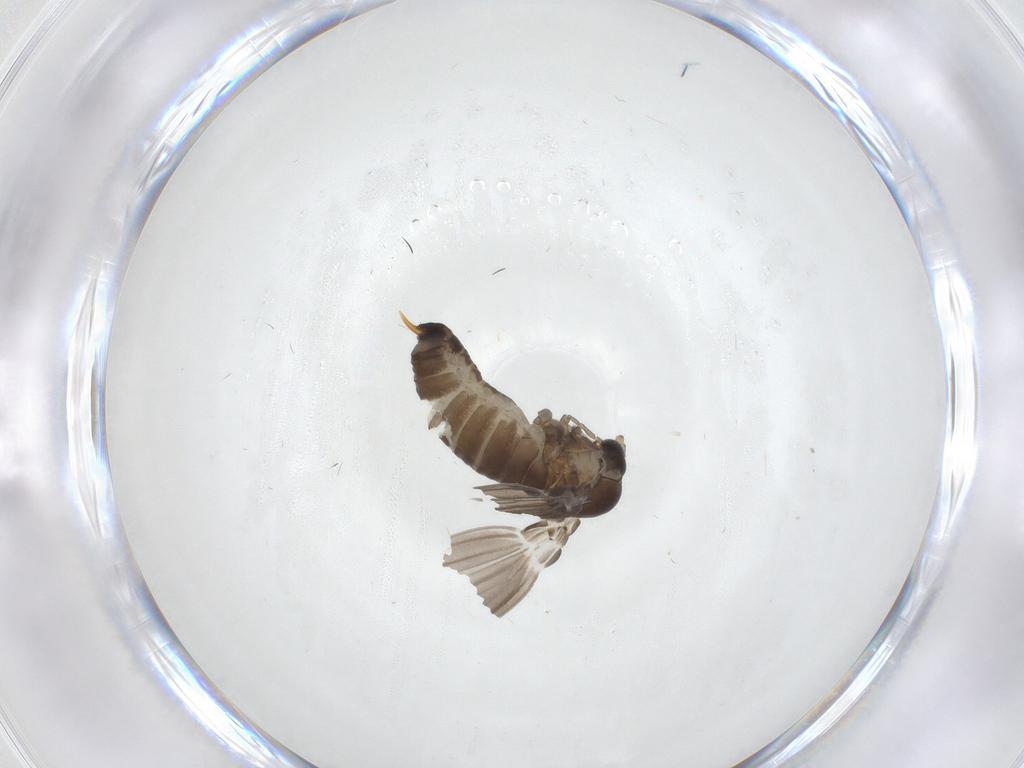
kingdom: Animalia
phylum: Arthropoda
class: Insecta
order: Diptera
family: Psychodidae
